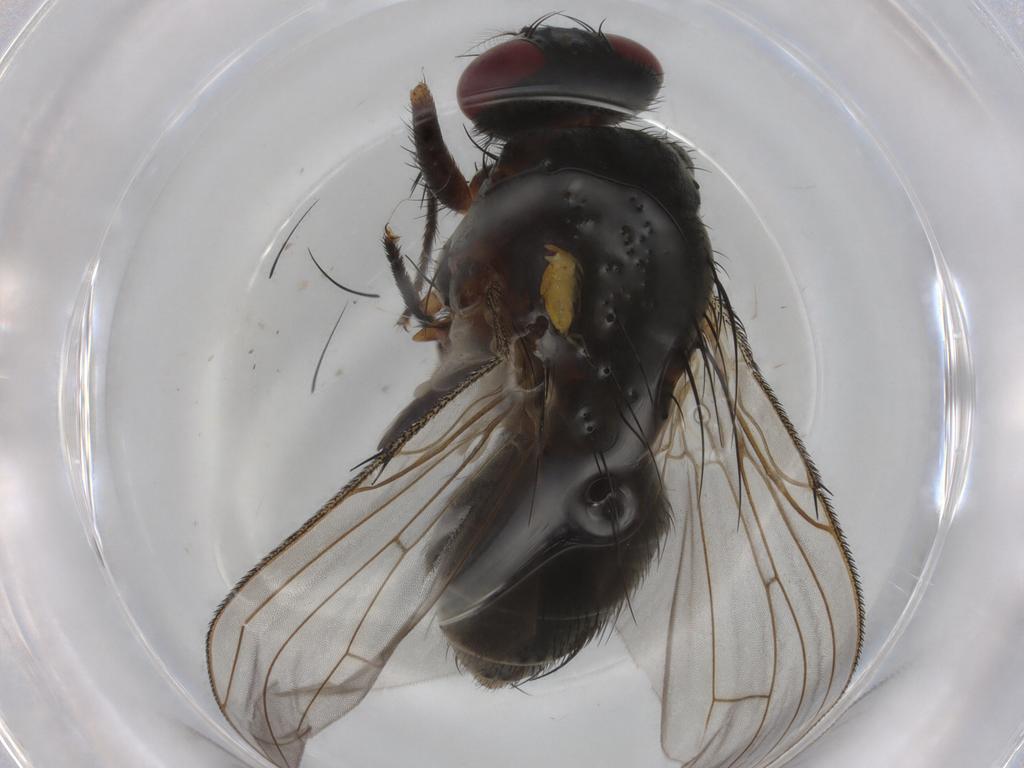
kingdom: Animalia
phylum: Arthropoda
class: Insecta
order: Diptera
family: Muscidae
